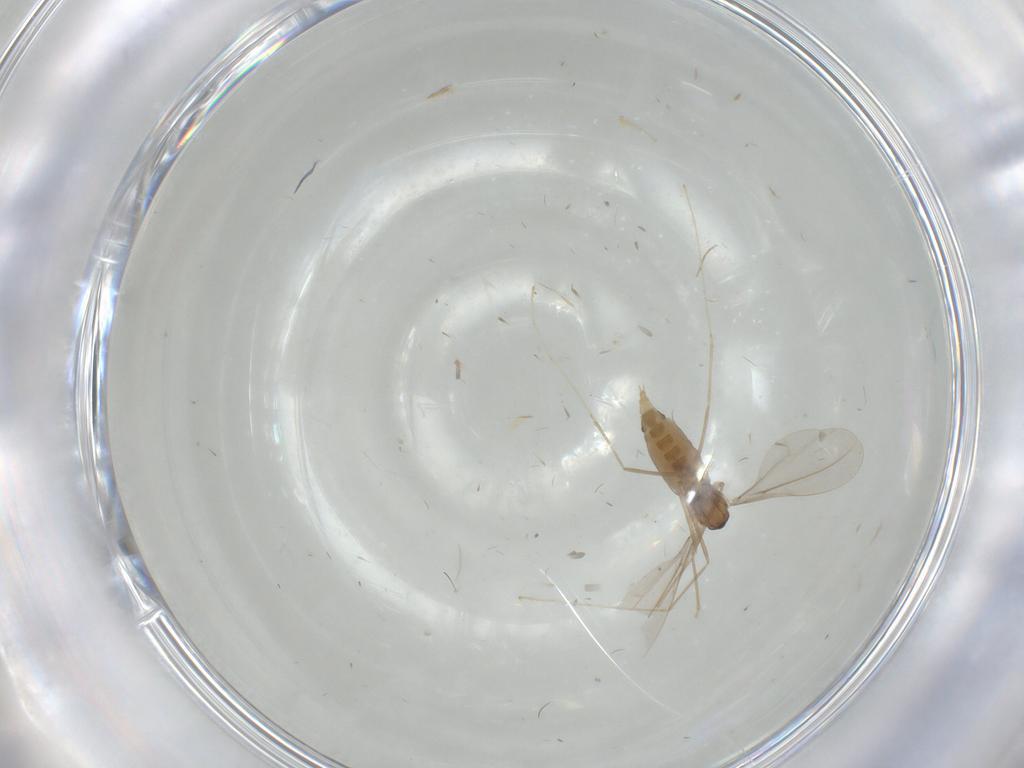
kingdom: Animalia
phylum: Arthropoda
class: Insecta
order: Diptera
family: Chironomidae
